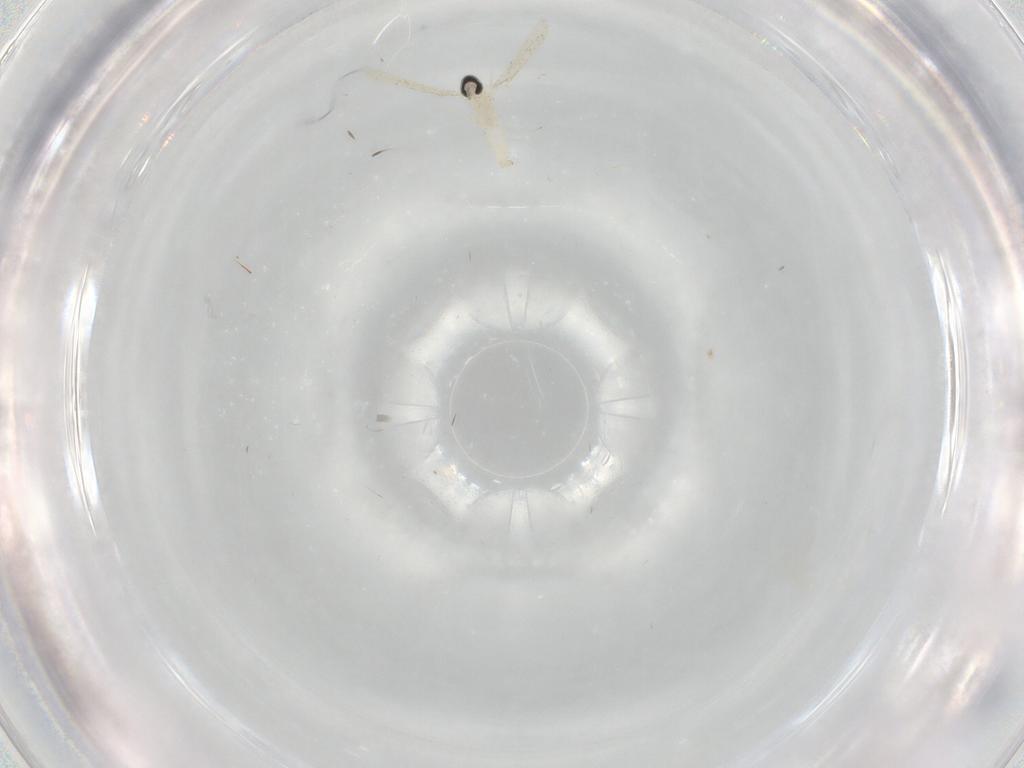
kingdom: Animalia
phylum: Arthropoda
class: Insecta
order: Diptera
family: Cecidomyiidae
